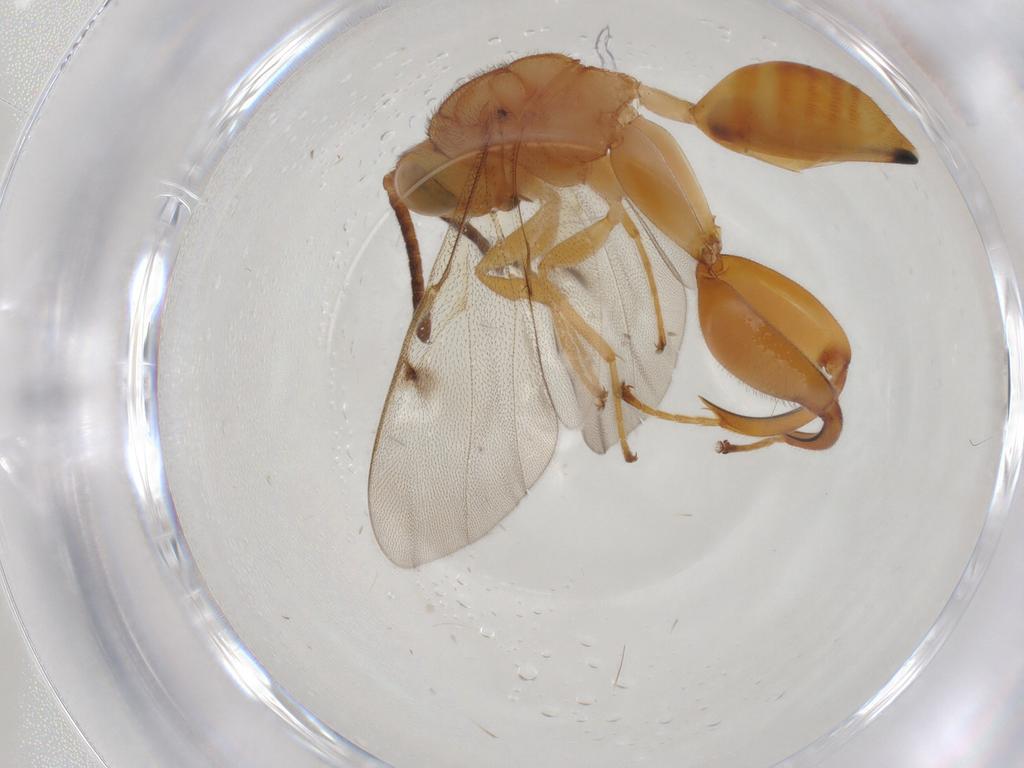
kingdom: Animalia
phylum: Arthropoda
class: Insecta
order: Hymenoptera
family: Chalcididae
